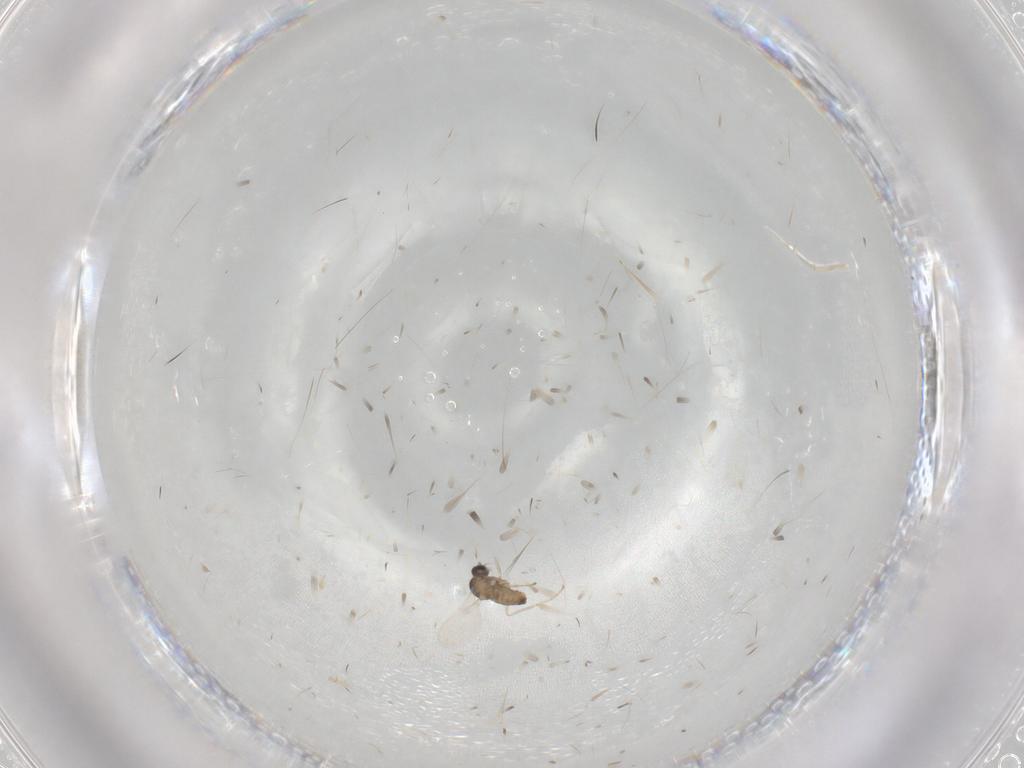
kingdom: Animalia
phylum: Arthropoda
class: Insecta
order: Diptera
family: Cecidomyiidae
